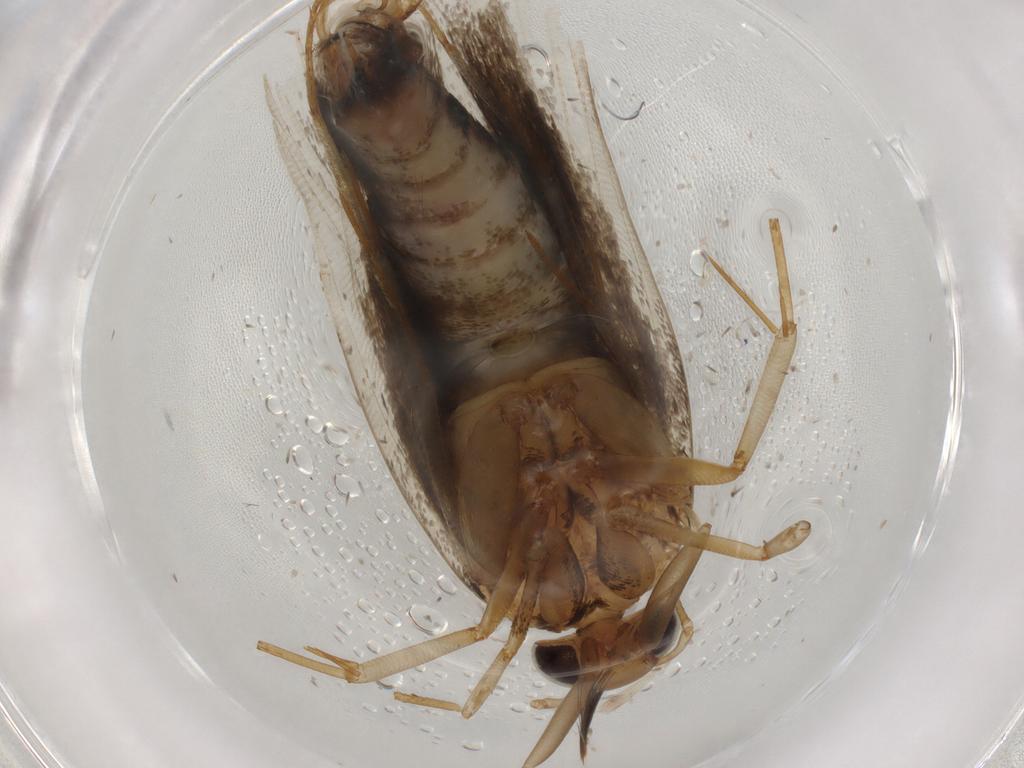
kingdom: Animalia
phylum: Arthropoda
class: Insecta
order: Lepidoptera
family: Gelechiidae
